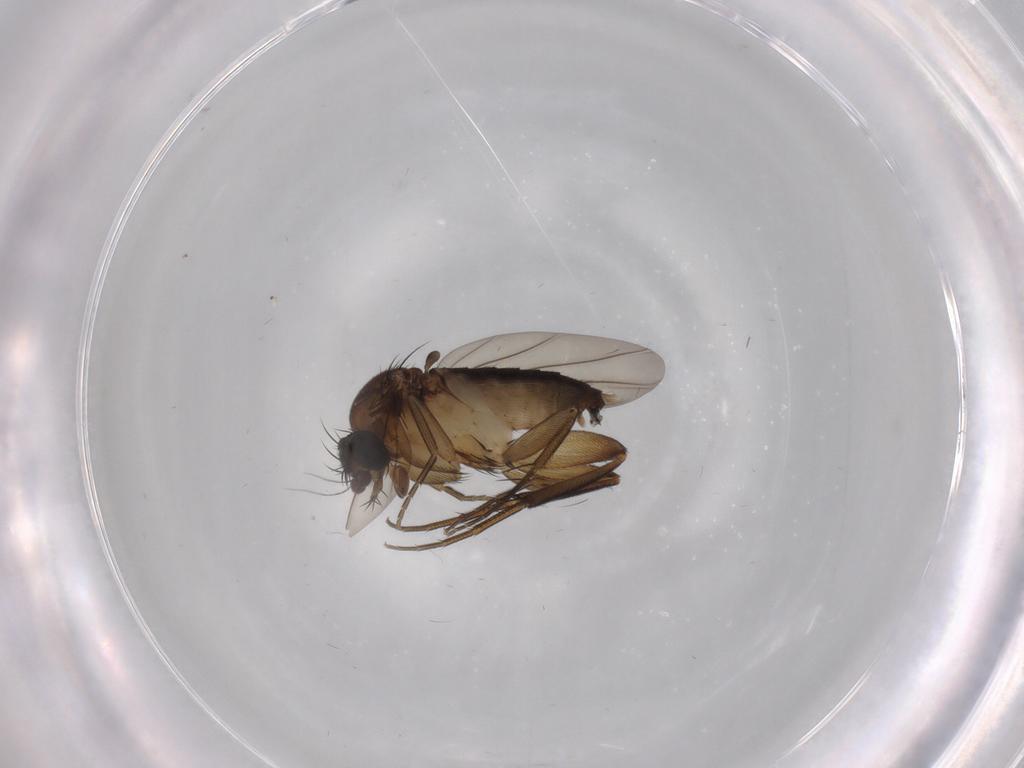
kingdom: Animalia
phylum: Arthropoda
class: Insecta
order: Diptera
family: Phoridae
